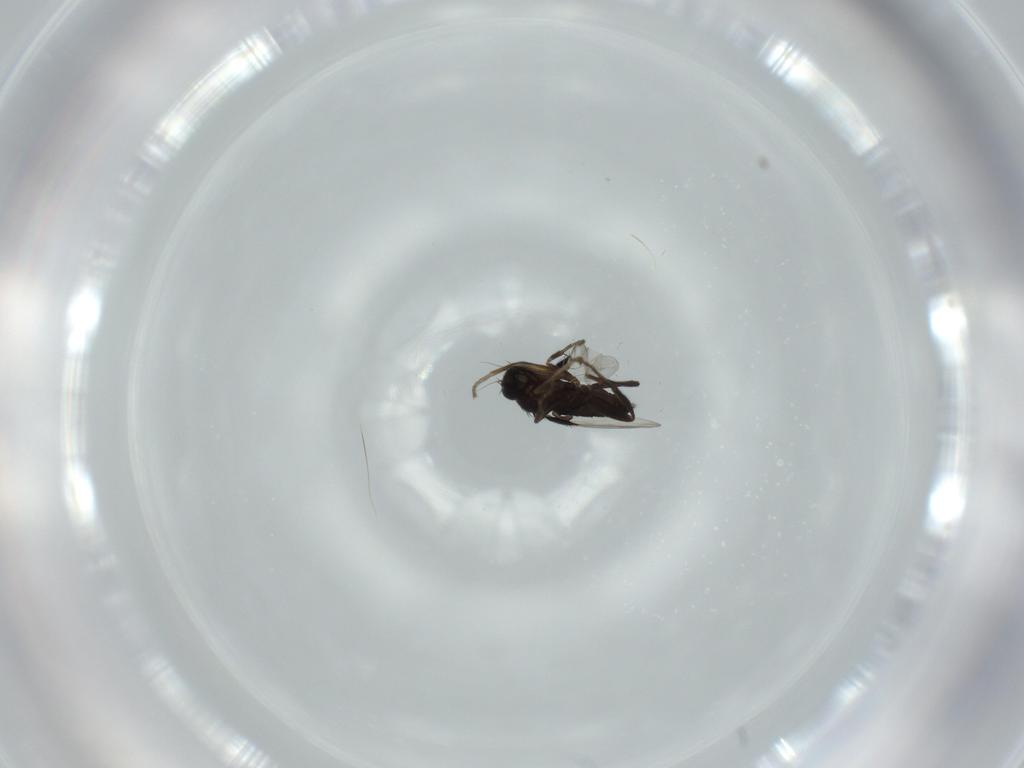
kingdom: Animalia
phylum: Arthropoda
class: Insecta
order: Diptera
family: Phoridae
